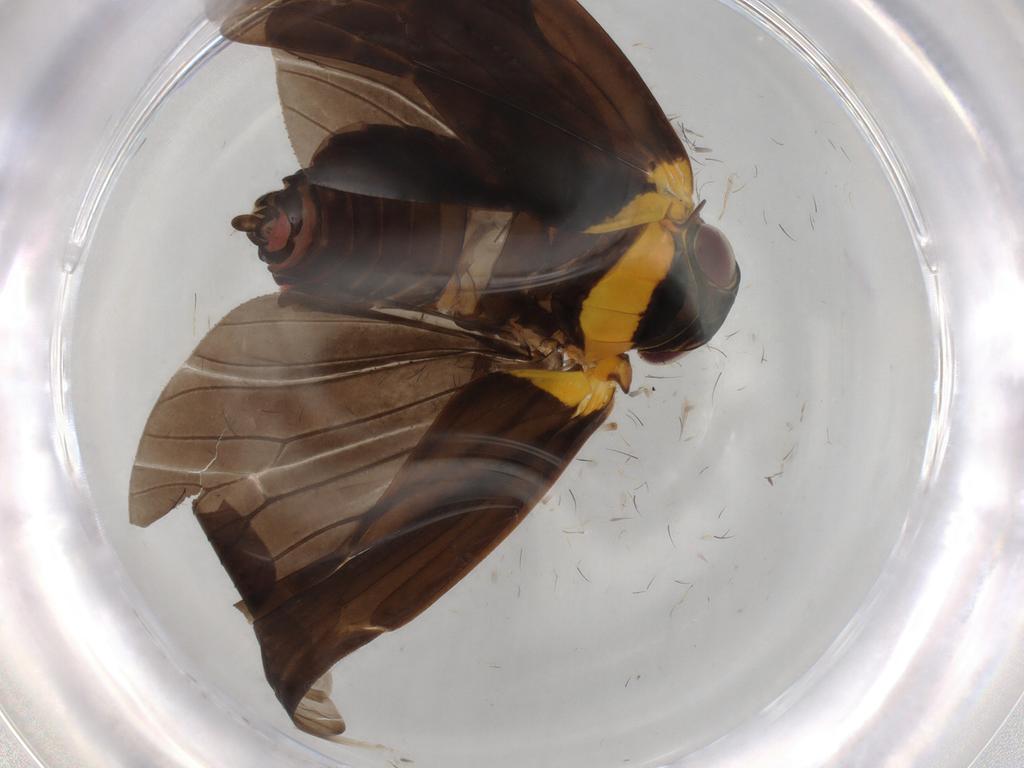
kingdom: Animalia
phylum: Arthropoda
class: Insecta
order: Hemiptera
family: Achilidae
